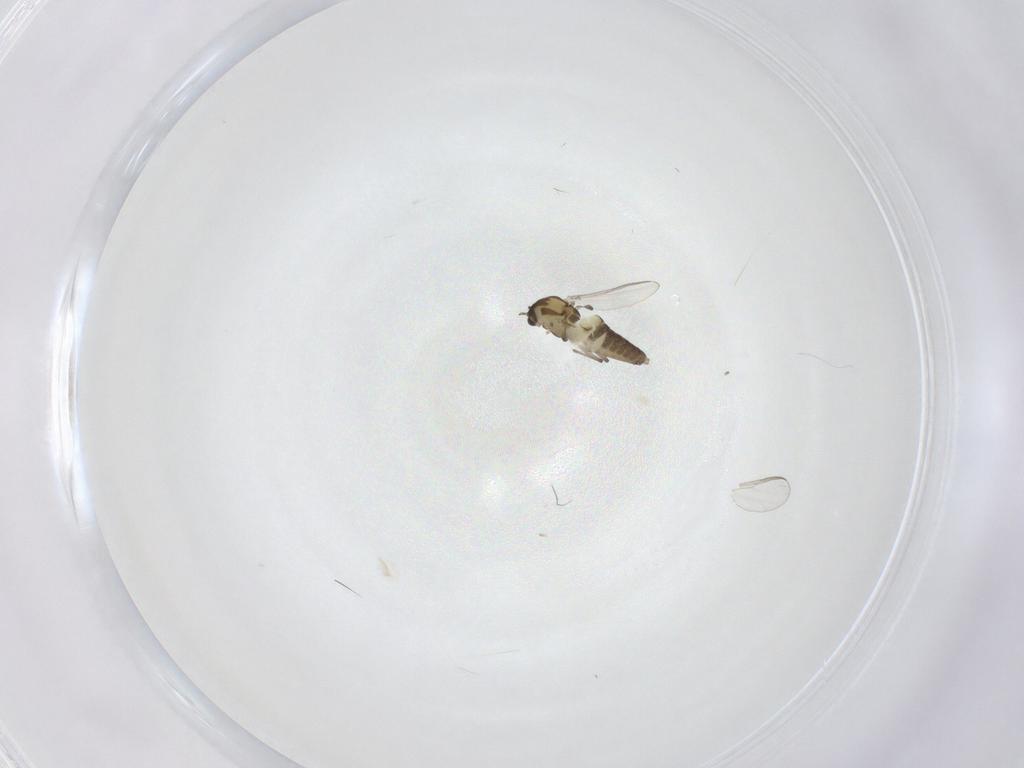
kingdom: Animalia
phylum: Arthropoda
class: Insecta
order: Diptera
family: Chironomidae
